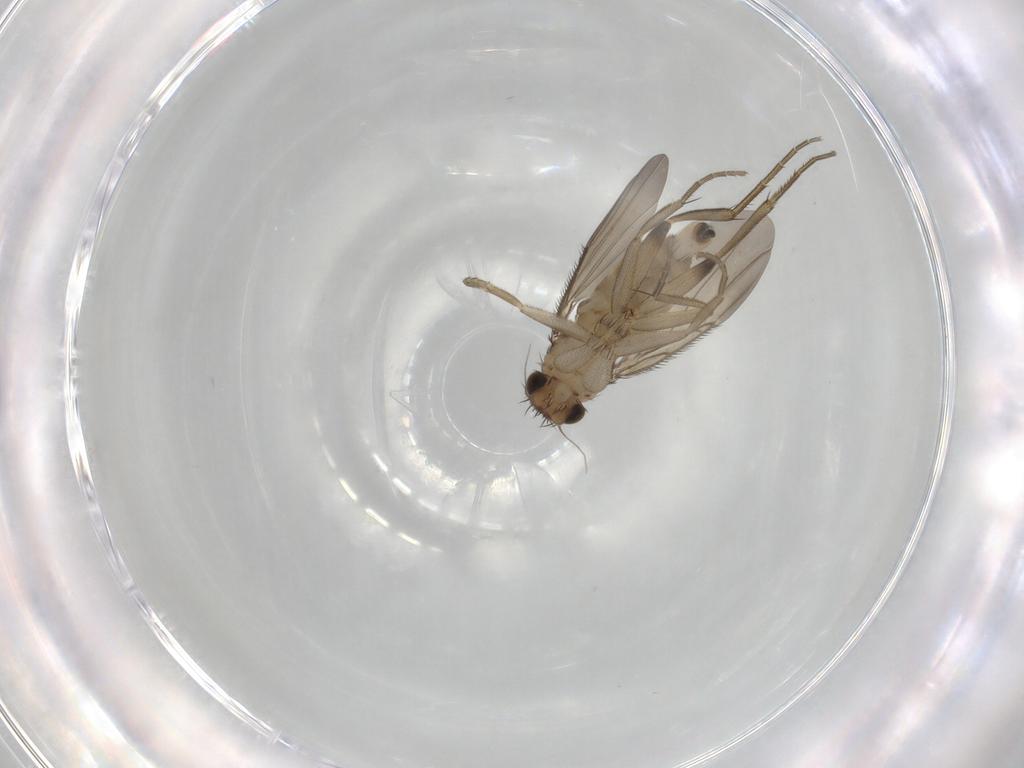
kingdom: Animalia
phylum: Arthropoda
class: Insecta
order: Diptera
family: Phoridae
